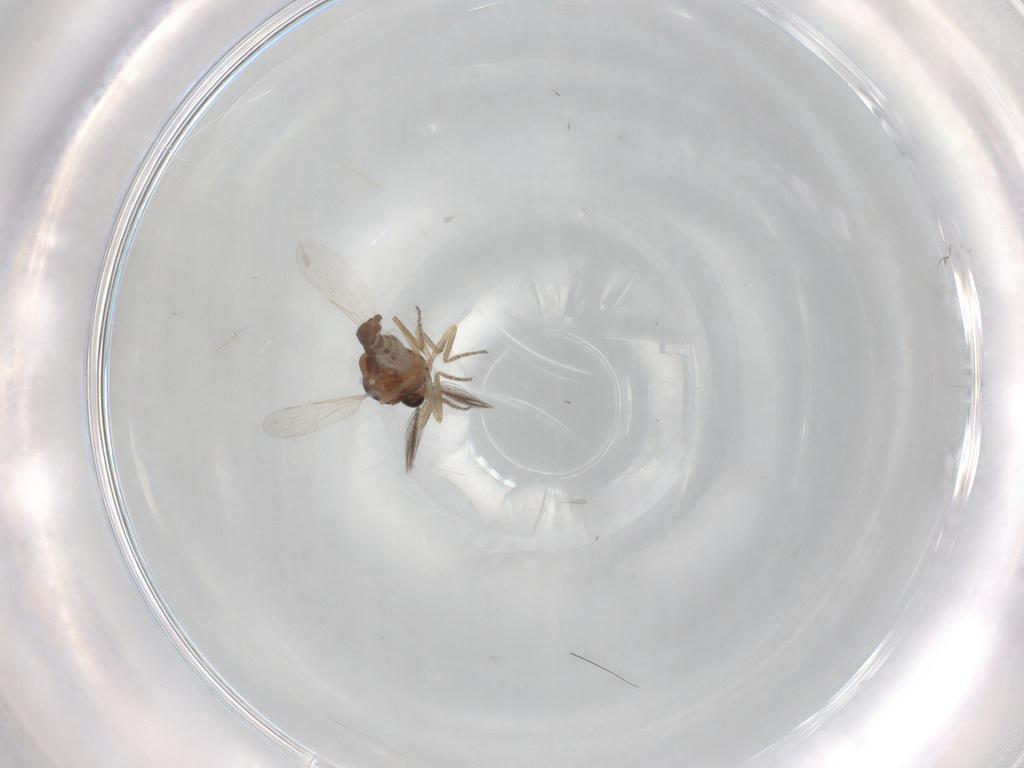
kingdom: Animalia
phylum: Arthropoda
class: Insecta
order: Diptera
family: Ceratopogonidae
